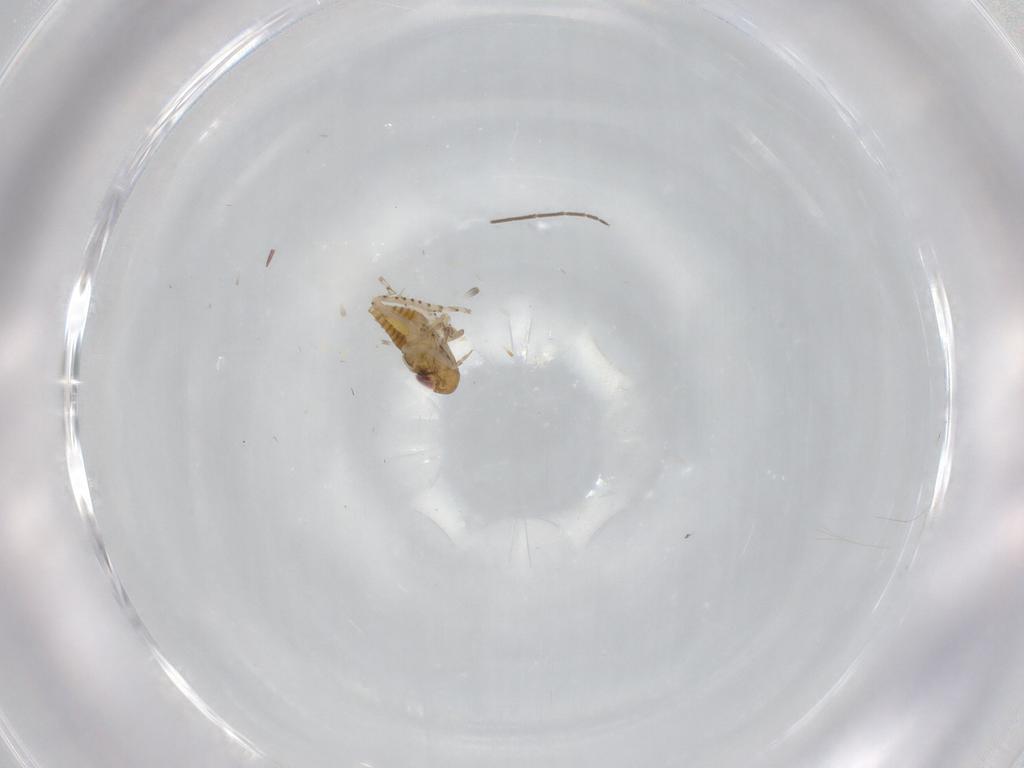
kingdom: Animalia
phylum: Arthropoda
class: Insecta
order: Hemiptera
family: Cicadellidae
